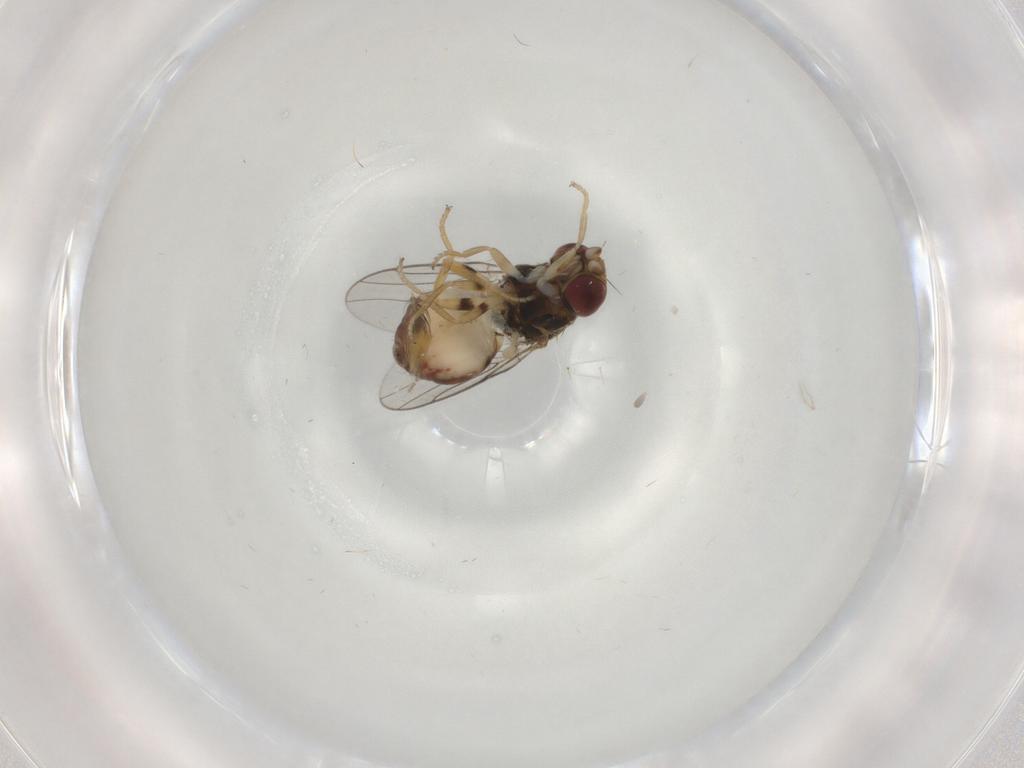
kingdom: Animalia
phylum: Arthropoda
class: Insecta
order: Diptera
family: Chloropidae
